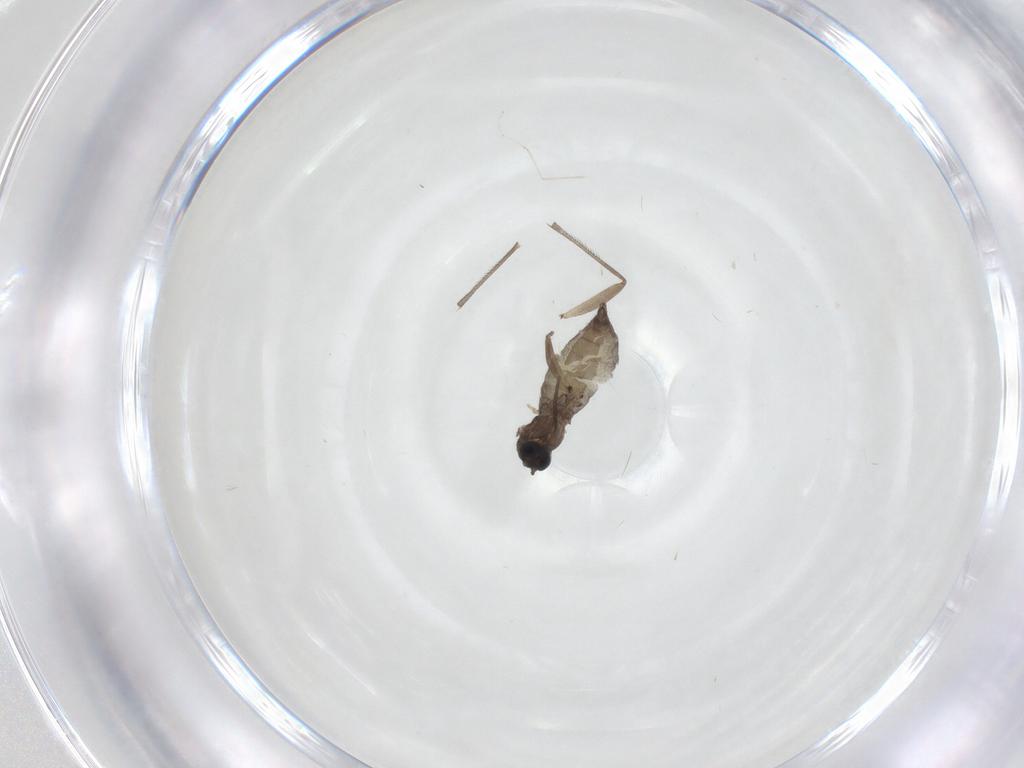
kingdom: Animalia
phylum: Arthropoda
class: Insecta
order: Diptera
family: Sciaridae
